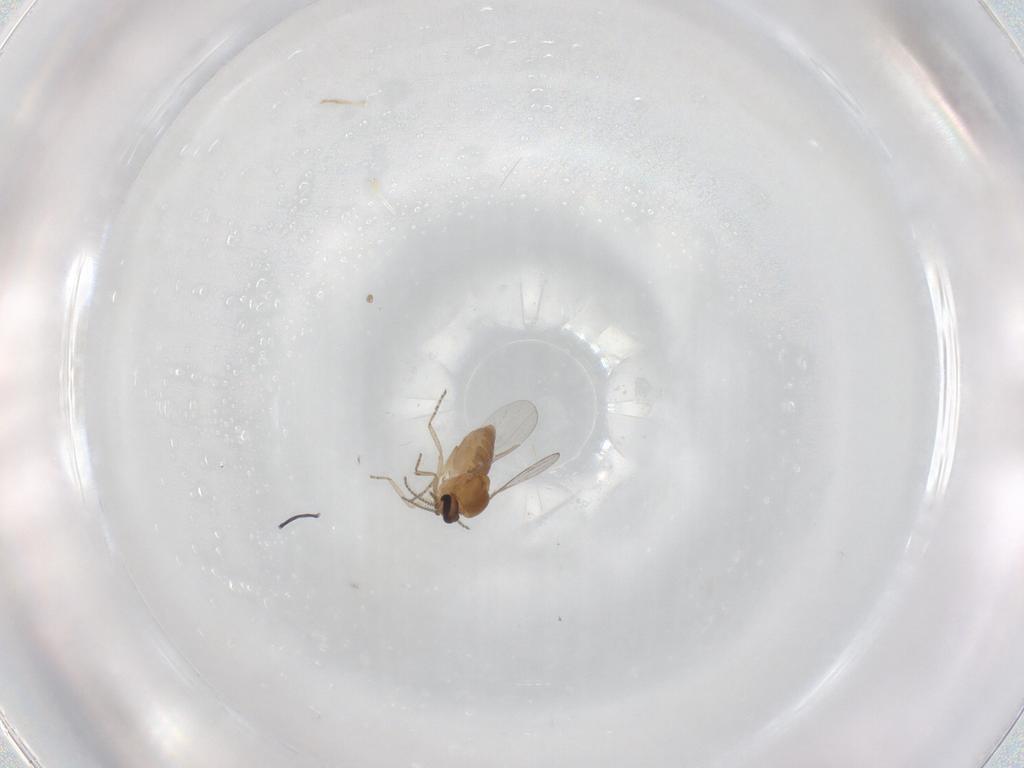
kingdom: Animalia
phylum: Arthropoda
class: Insecta
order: Diptera
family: Ceratopogonidae
